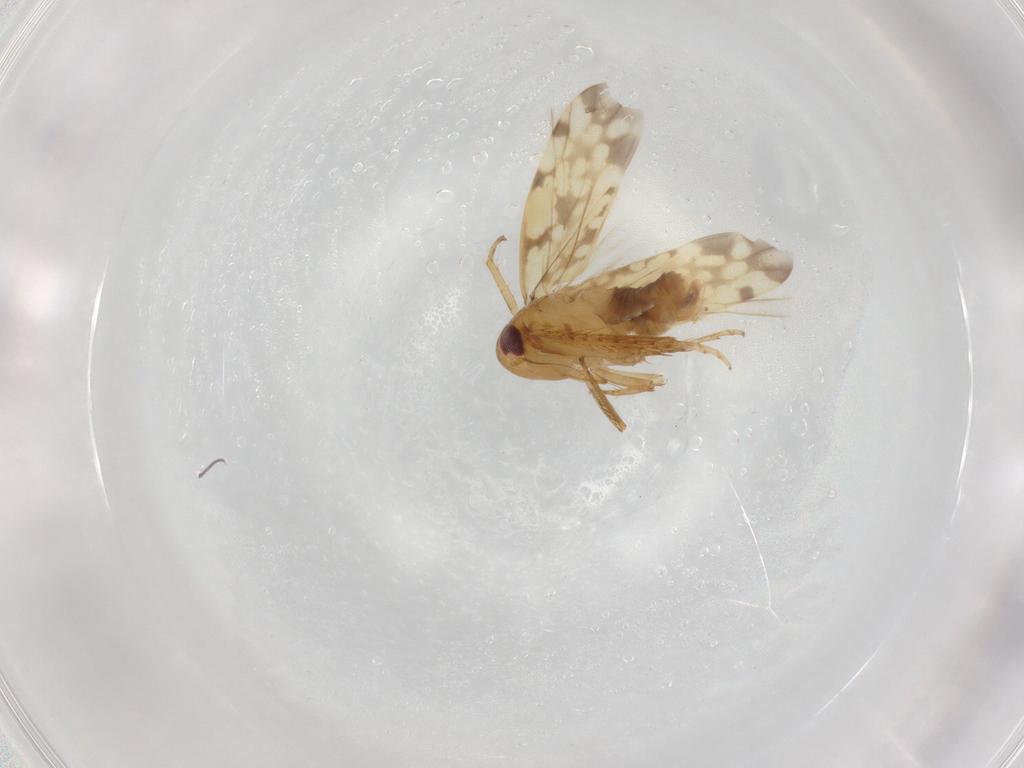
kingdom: Animalia
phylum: Arthropoda
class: Insecta
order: Hemiptera
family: Cicadellidae
